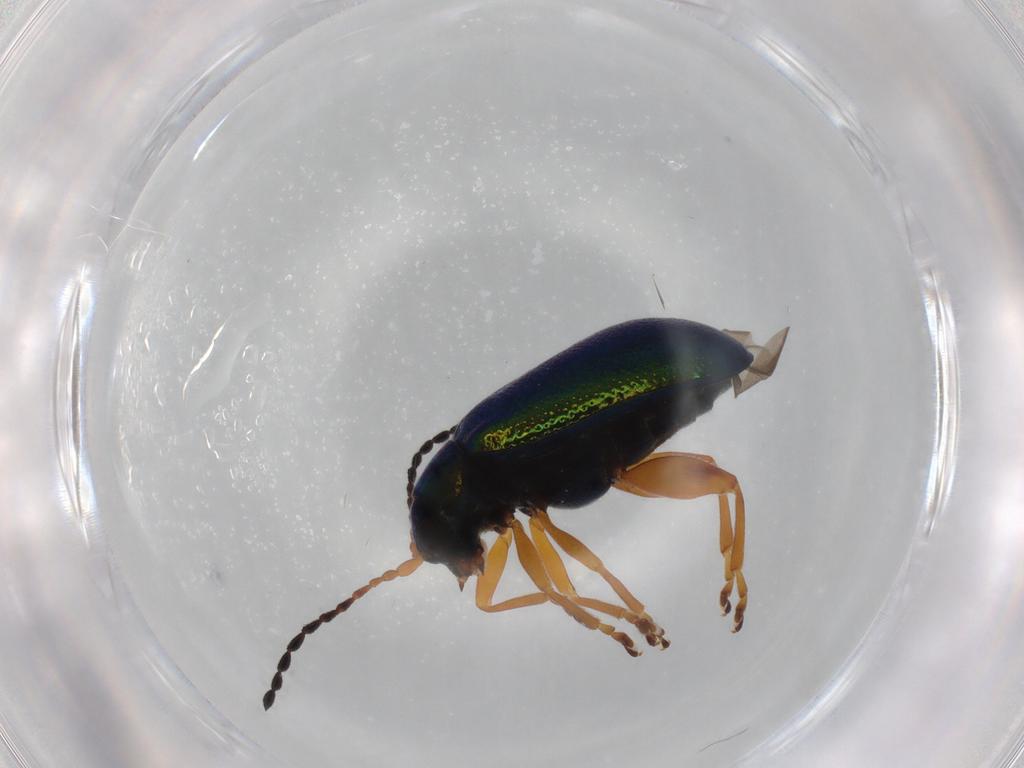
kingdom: Animalia
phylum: Arthropoda
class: Insecta
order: Coleoptera
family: Chrysomelidae
